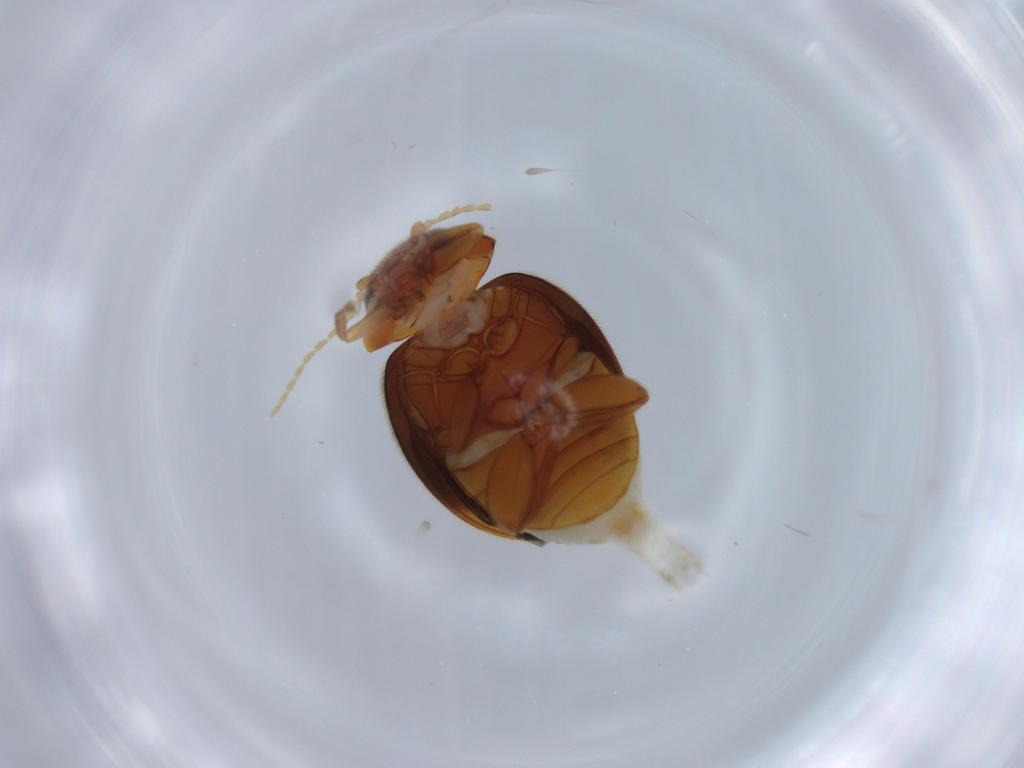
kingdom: Animalia
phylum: Arthropoda
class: Insecta
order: Coleoptera
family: Scirtidae
